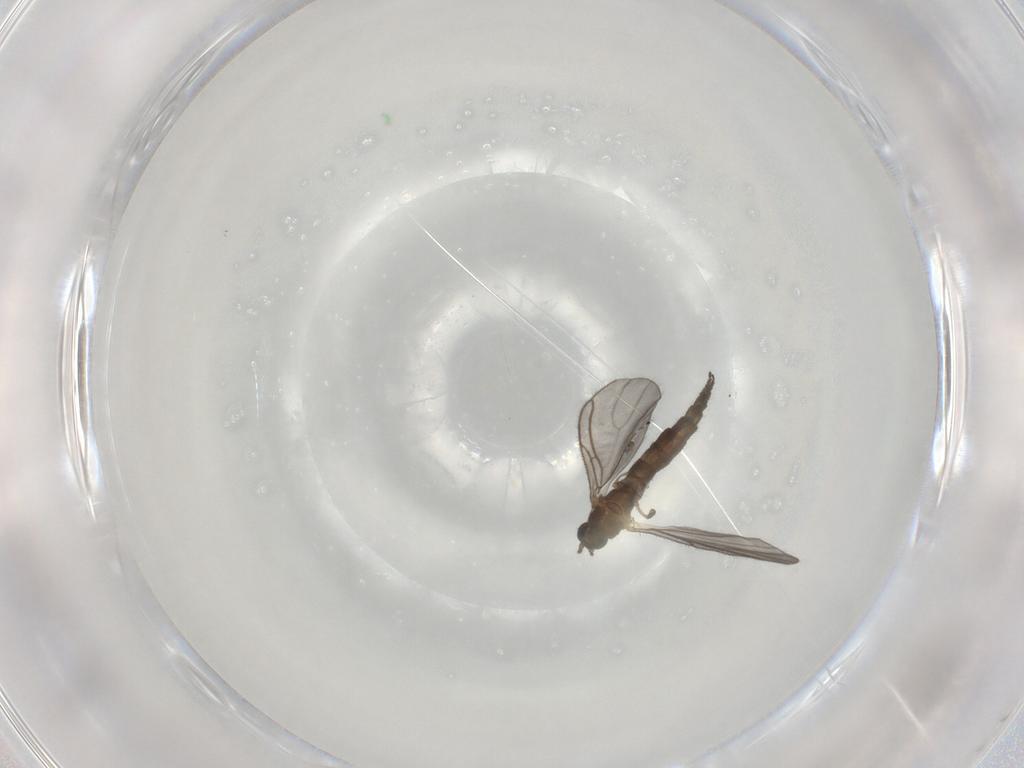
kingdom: Animalia
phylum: Arthropoda
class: Insecta
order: Diptera
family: Sciaridae
